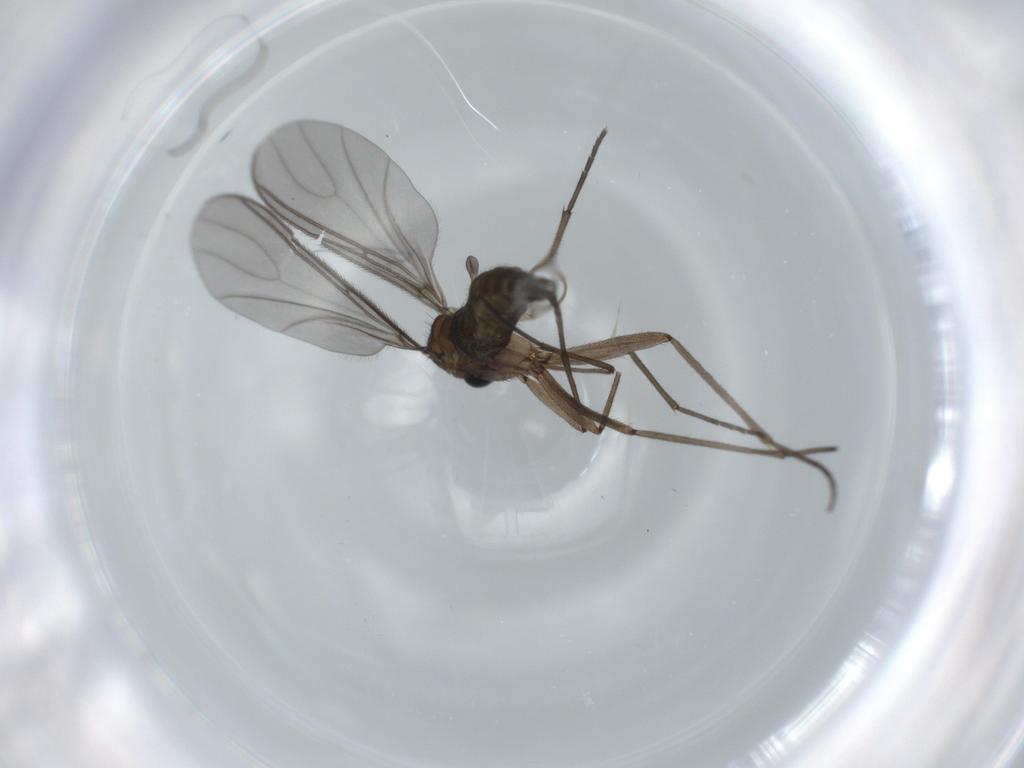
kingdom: Animalia
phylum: Arthropoda
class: Insecta
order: Diptera
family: Sciaridae
